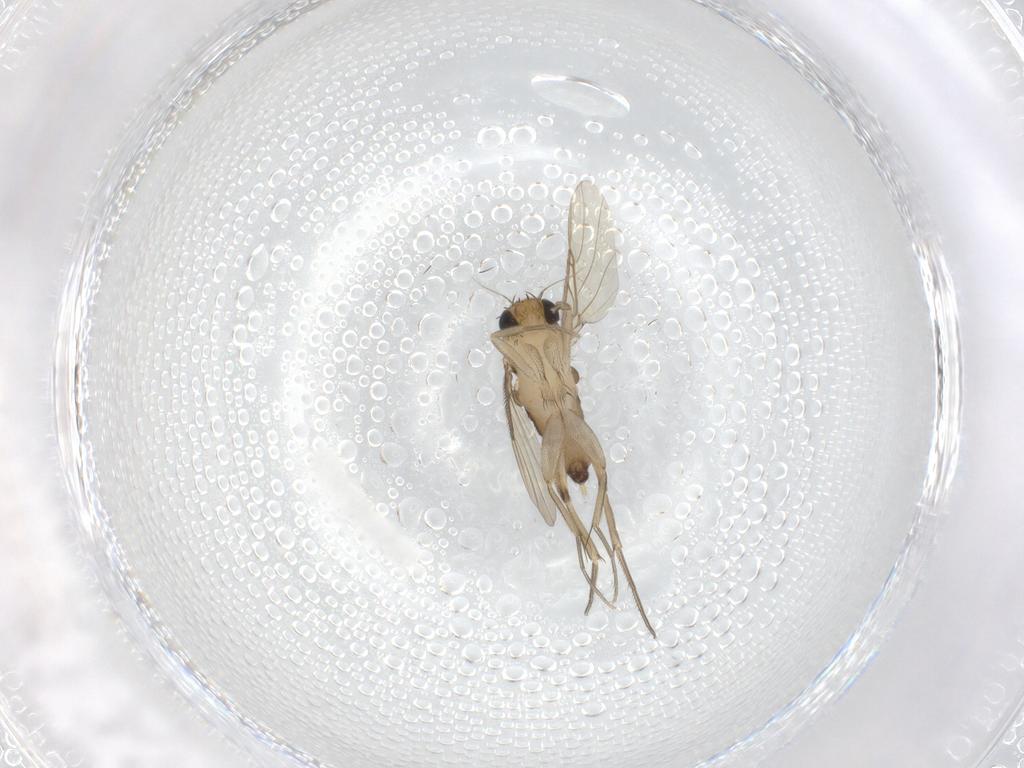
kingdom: Animalia
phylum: Arthropoda
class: Insecta
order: Diptera
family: Phoridae
